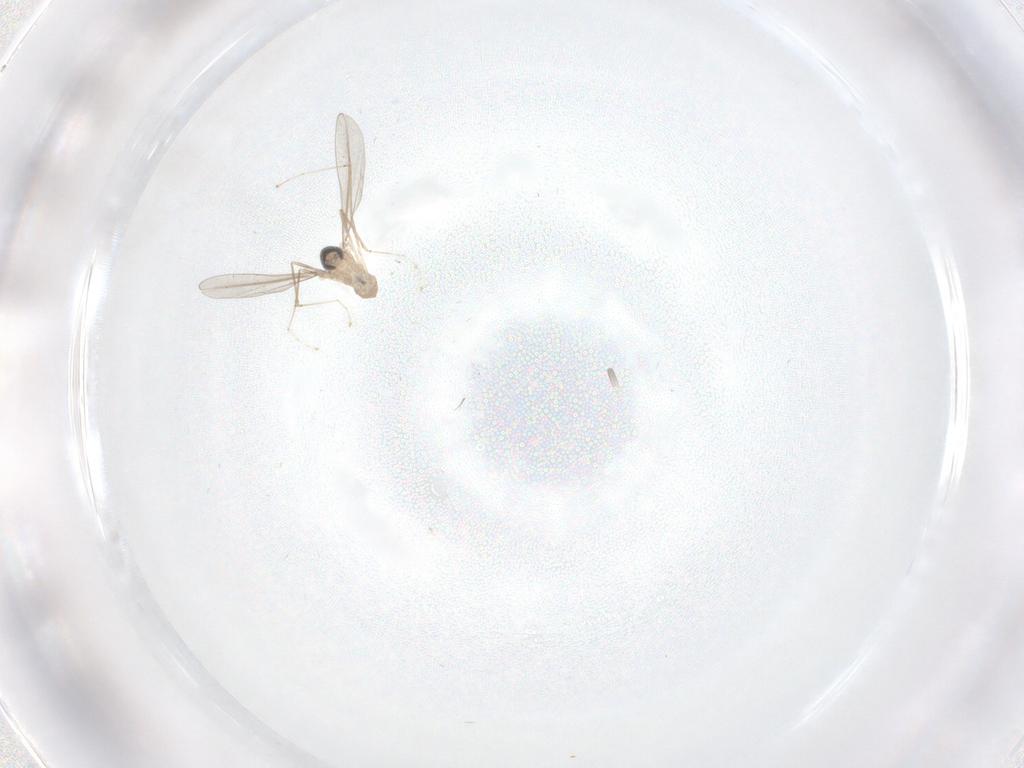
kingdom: Animalia
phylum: Arthropoda
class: Insecta
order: Diptera
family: Cecidomyiidae
